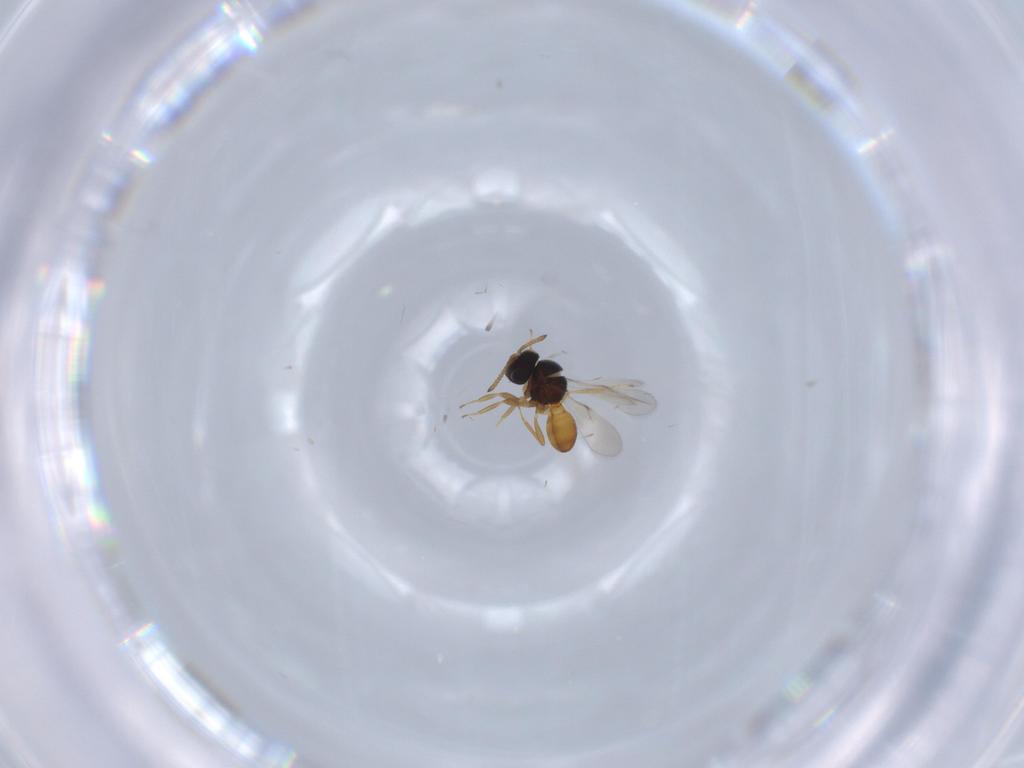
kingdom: Animalia
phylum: Arthropoda
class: Insecta
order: Hymenoptera
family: Scelionidae
